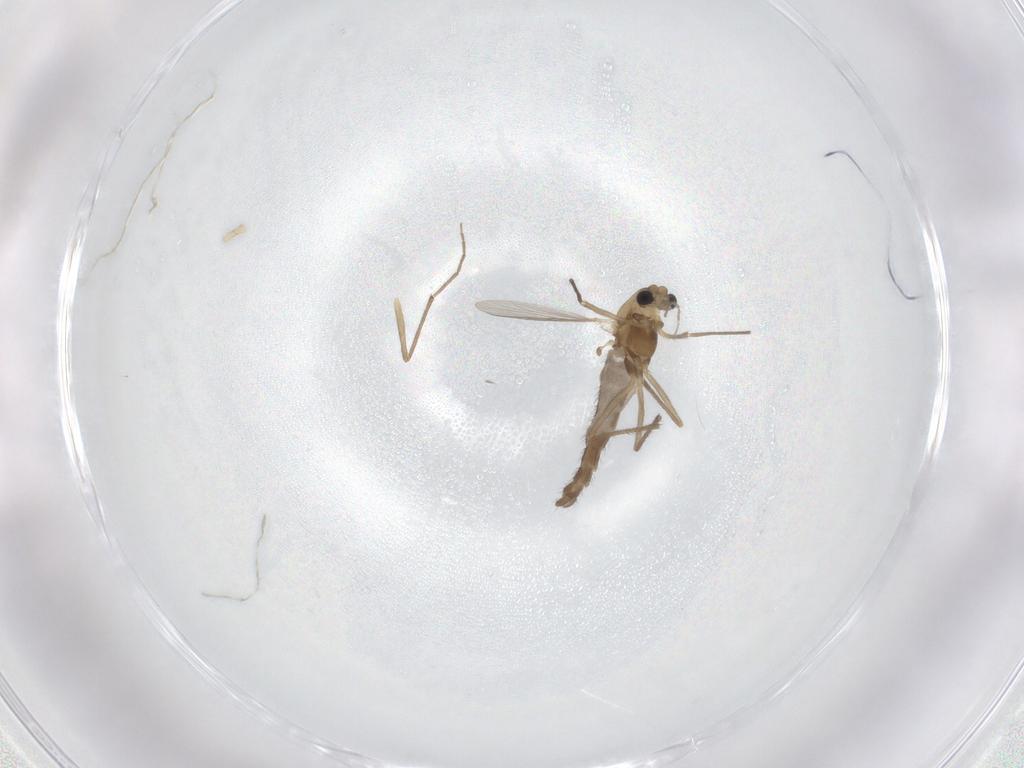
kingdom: Animalia
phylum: Arthropoda
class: Insecta
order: Diptera
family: Chironomidae
